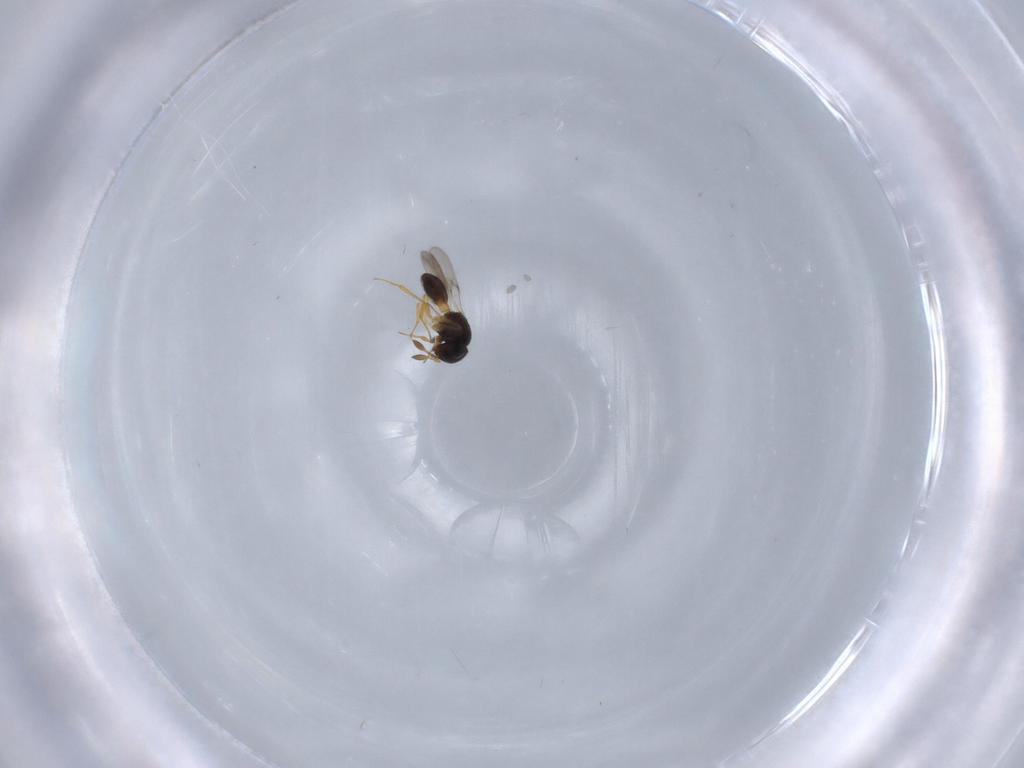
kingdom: Animalia
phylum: Arthropoda
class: Insecta
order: Hymenoptera
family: Scelionidae
